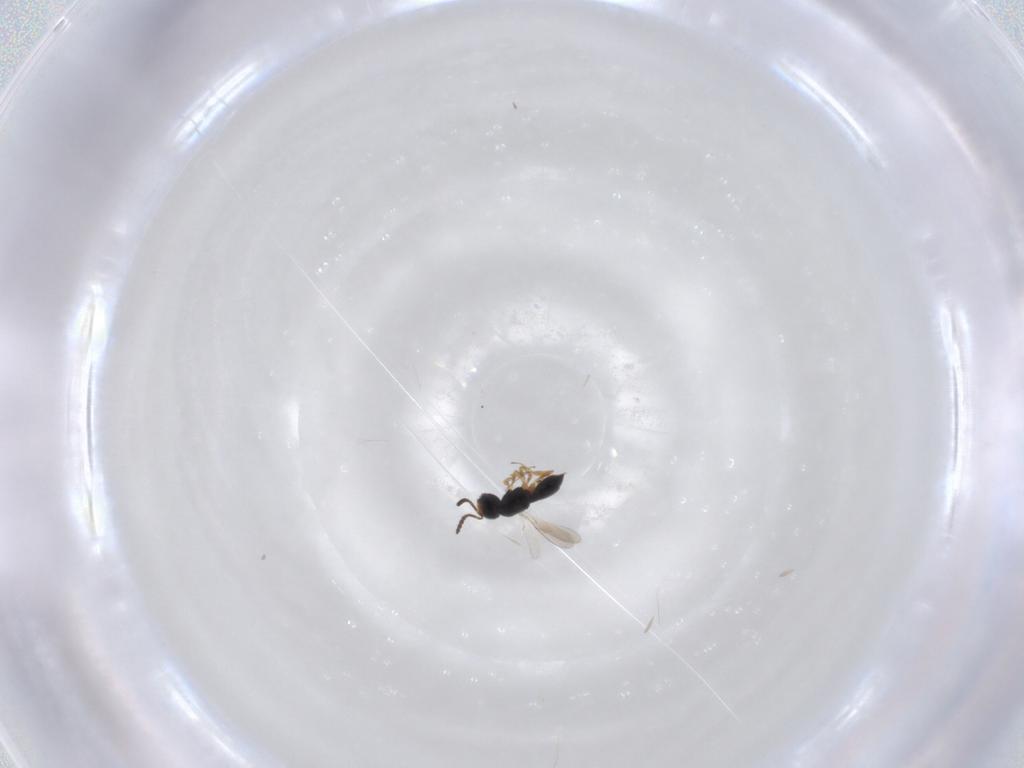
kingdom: Animalia
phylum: Arthropoda
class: Insecta
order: Hymenoptera
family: Scelionidae
